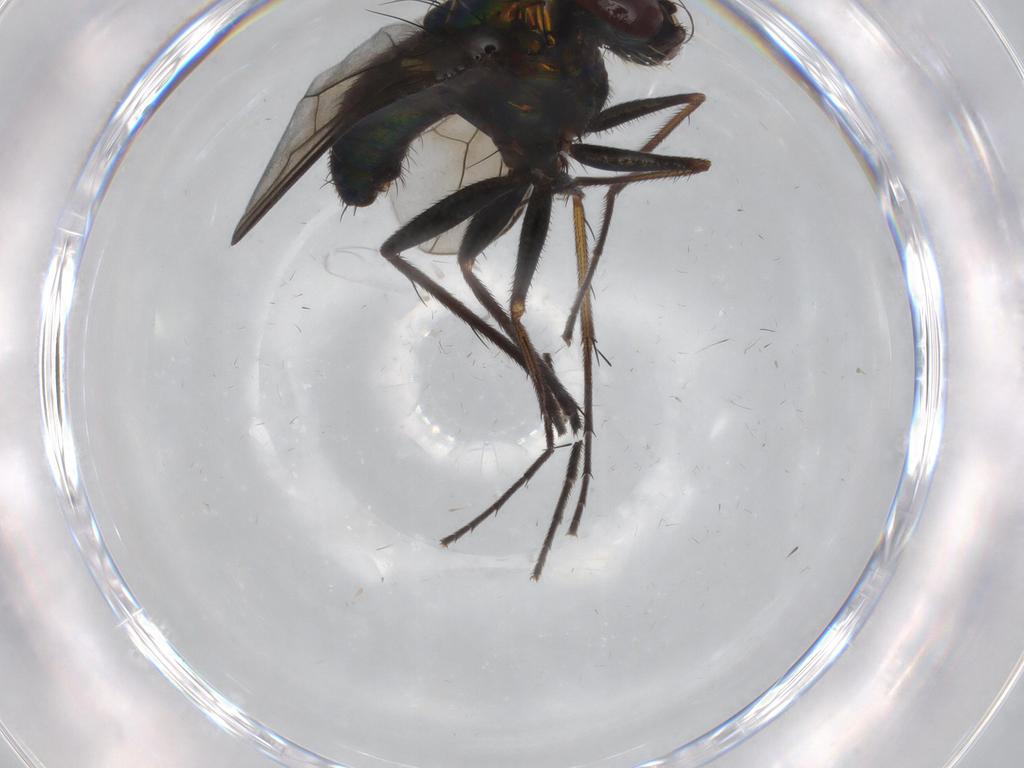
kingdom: Animalia
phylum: Arthropoda
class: Insecta
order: Diptera
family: Dolichopodidae
